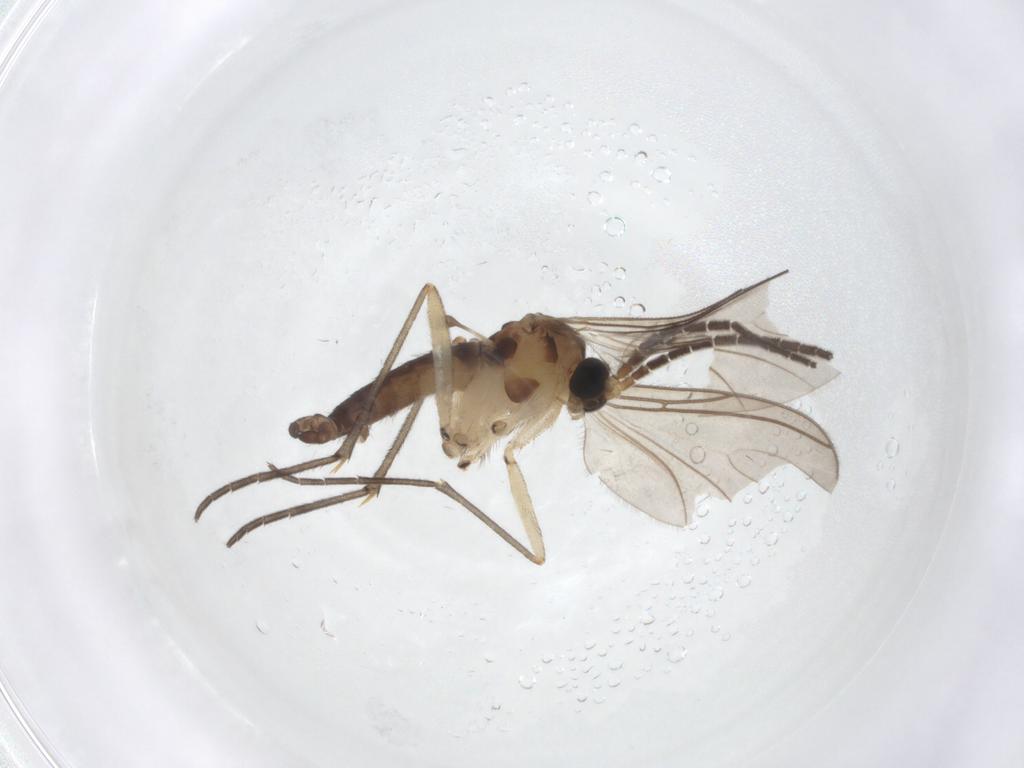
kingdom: Animalia
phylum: Arthropoda
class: Insecta
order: Diptera
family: Sciaridae
